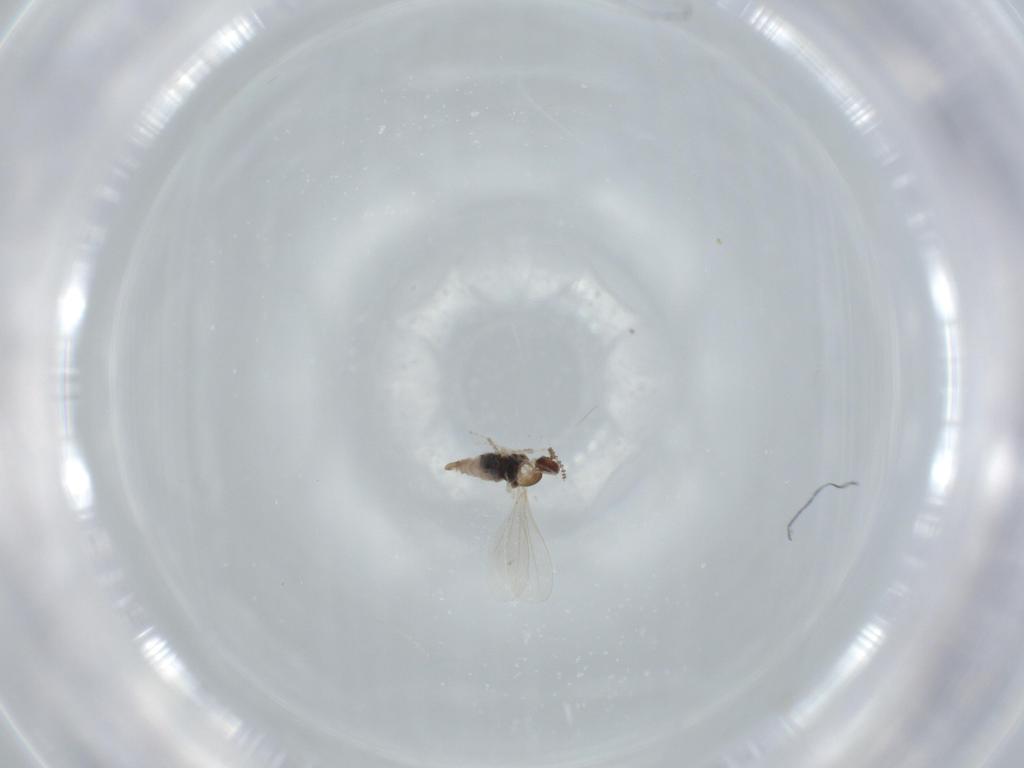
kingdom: Animalia
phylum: Arthropoda
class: Insecta
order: Diptera
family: Cecidomyiidae
